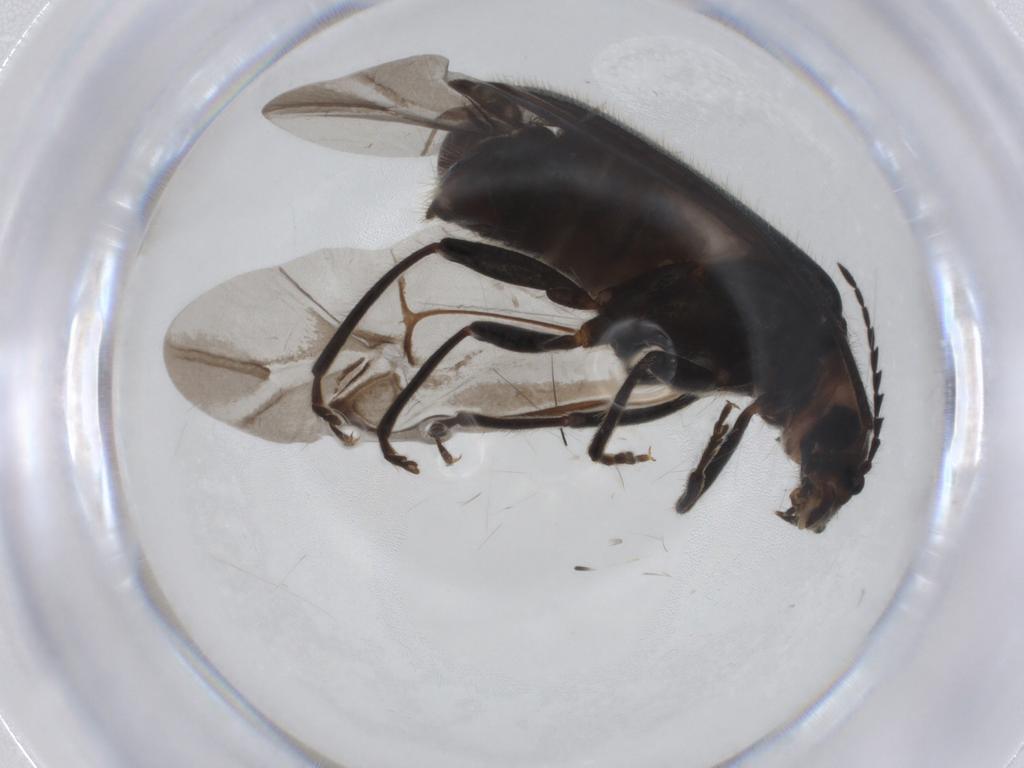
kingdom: Animalia
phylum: Arthropoda
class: Insecta
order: Coleoptera
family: Melyridae
